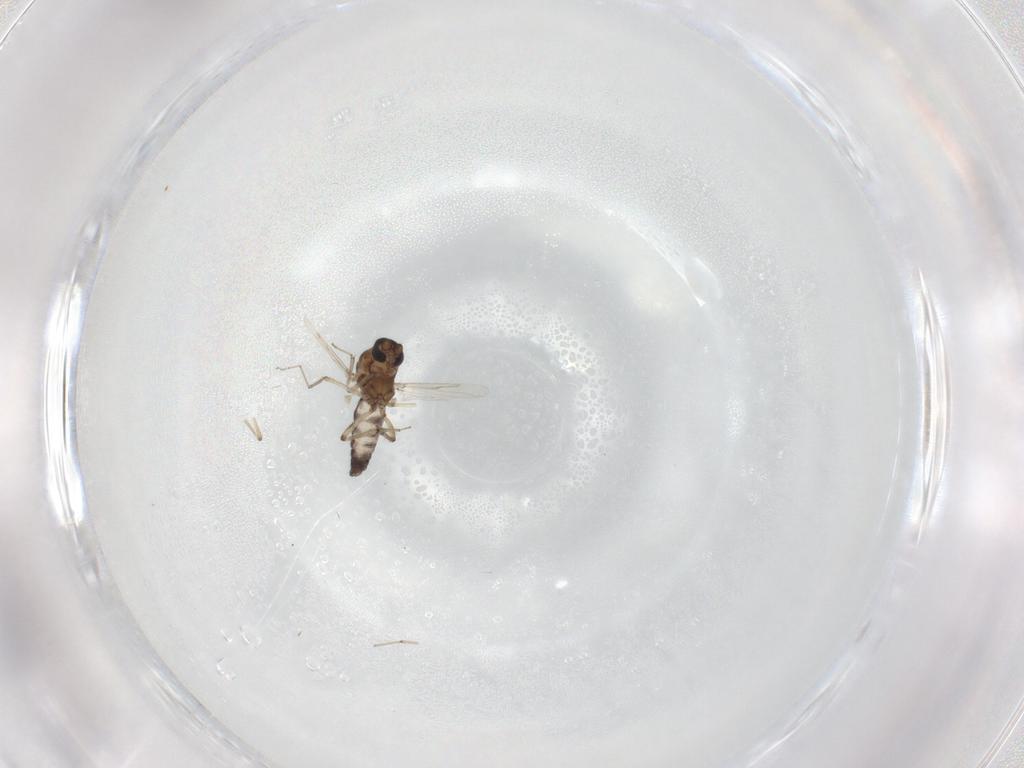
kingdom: Animalia
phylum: Arthropoda
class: Insecta
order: Diptera
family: Ceratopogonidae
